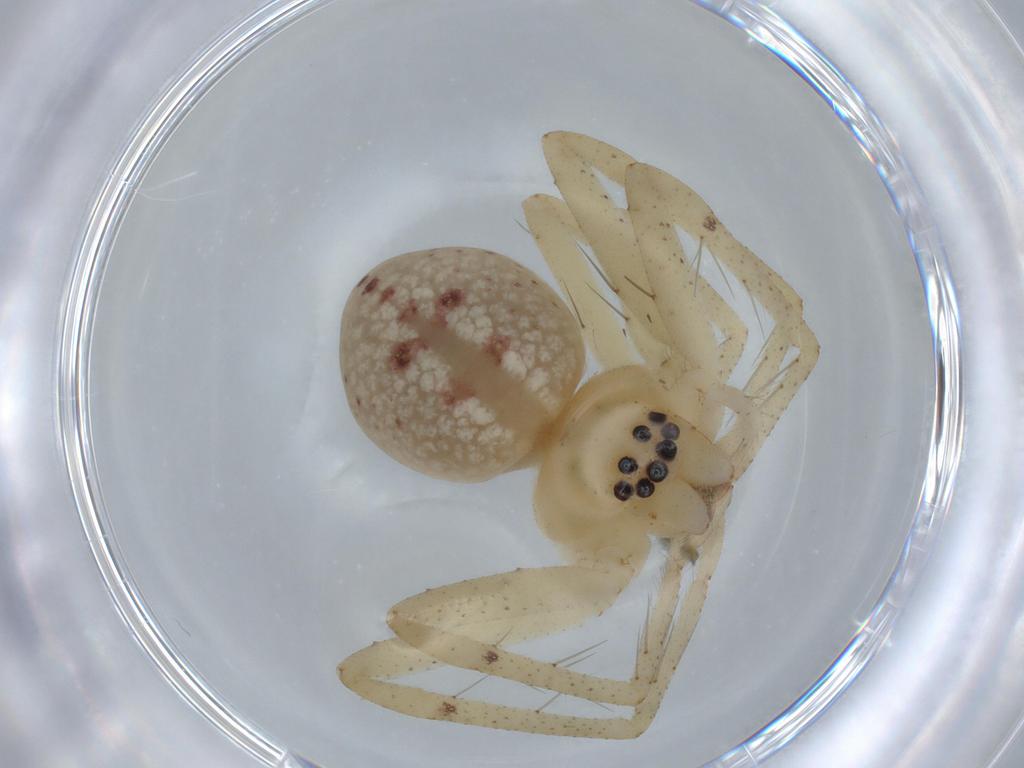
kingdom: Animalia
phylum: Arthropoda
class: Arachnida
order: Araneae
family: Sparassidae
